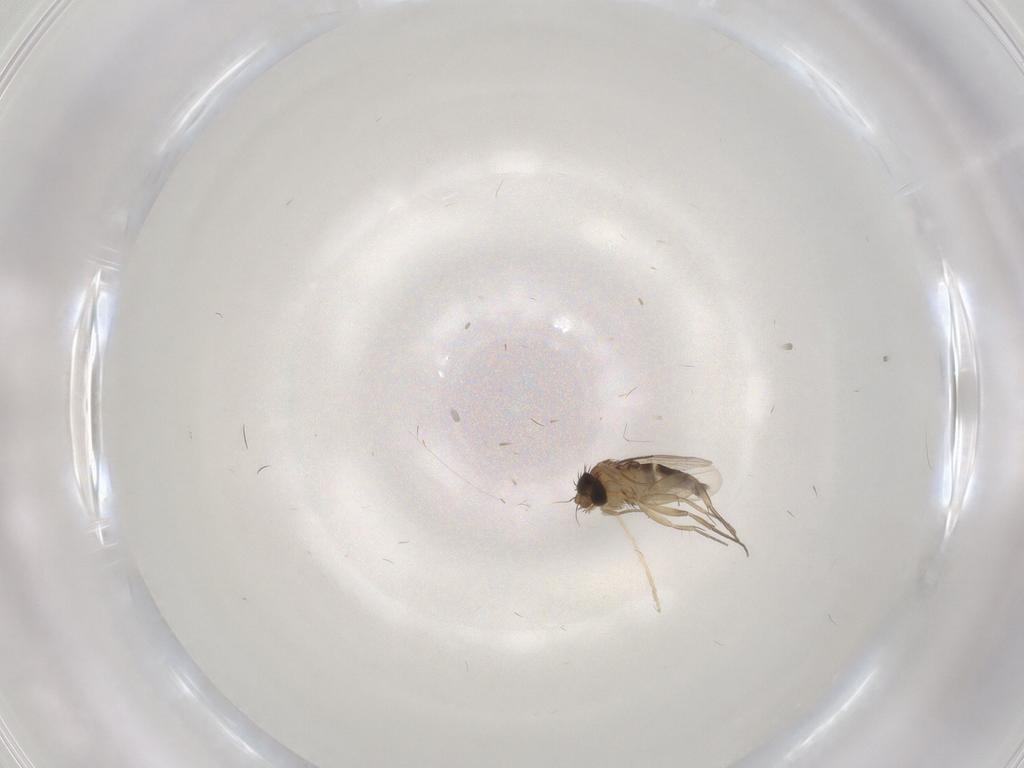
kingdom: Animalia
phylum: Arthropoda
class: Insecta
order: Diptera
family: Phoridae
